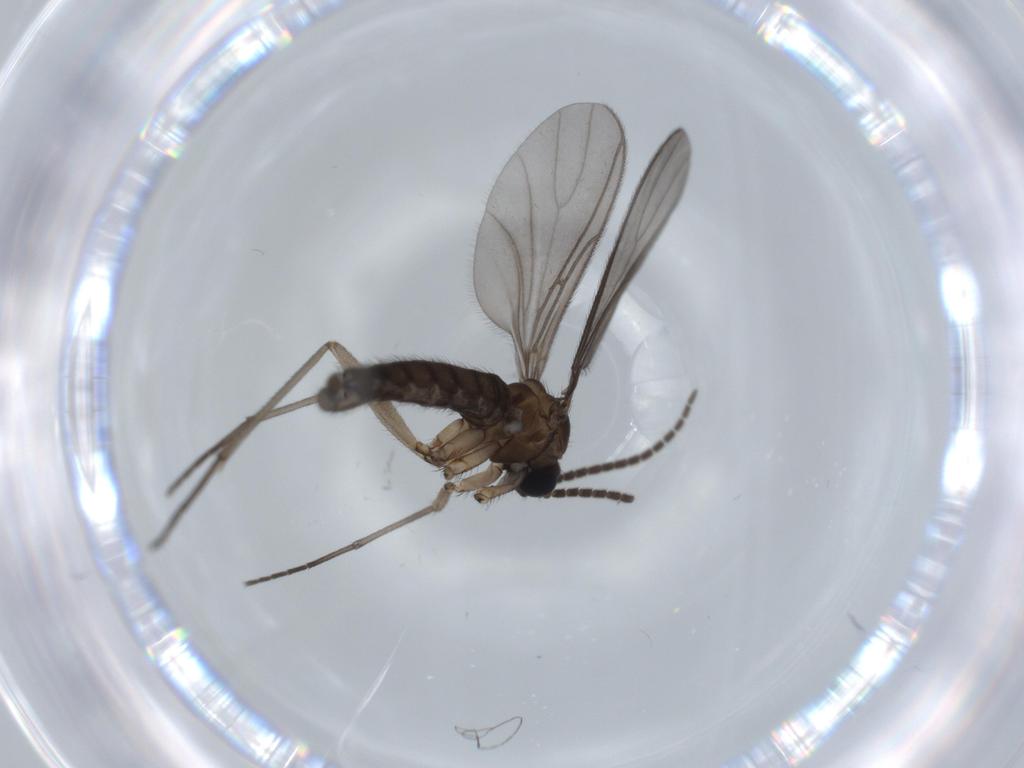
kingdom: Animalia
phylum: Arthropoda
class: Insecta
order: Diptera
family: Sciaridae
